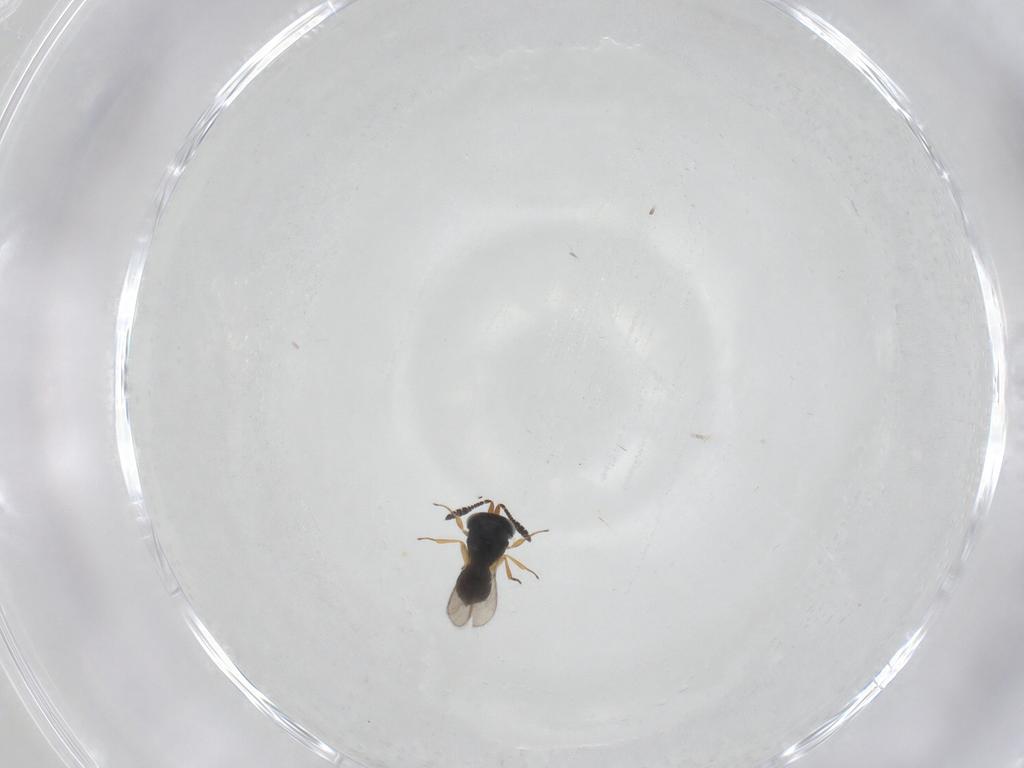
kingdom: Animalia
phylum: Arthropoda
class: Insecta
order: Hymenoptera
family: Scelionidae
